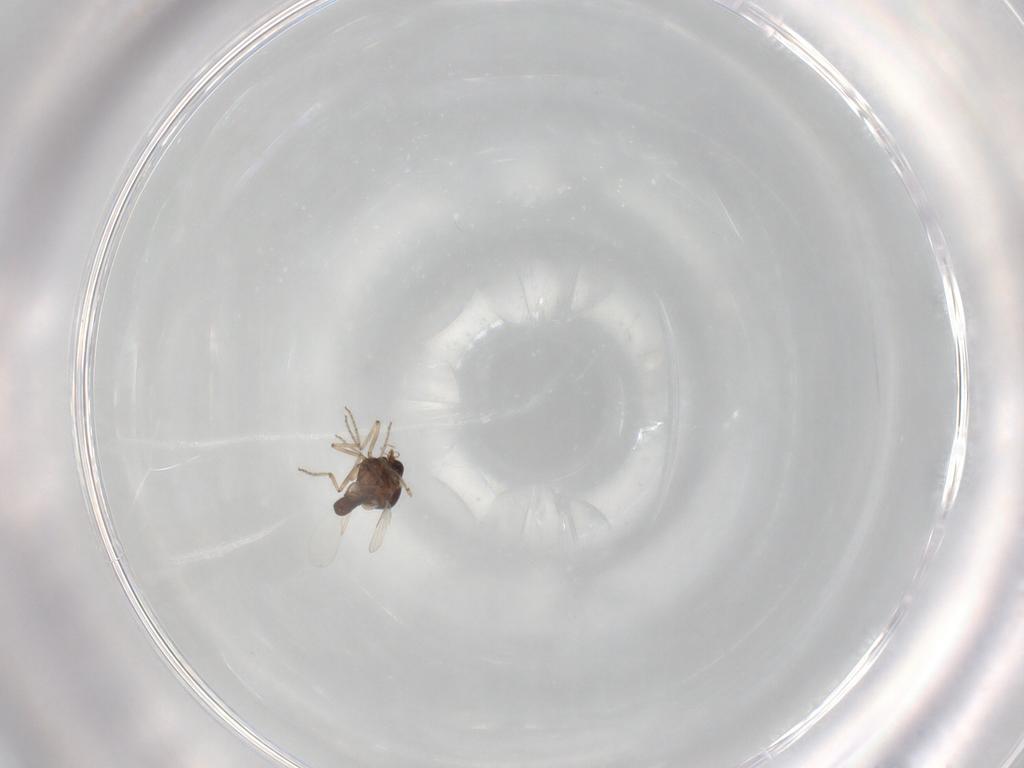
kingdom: Animalia
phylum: Arthropoda
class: Insecta
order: Diptera
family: Ceratopogonidae
